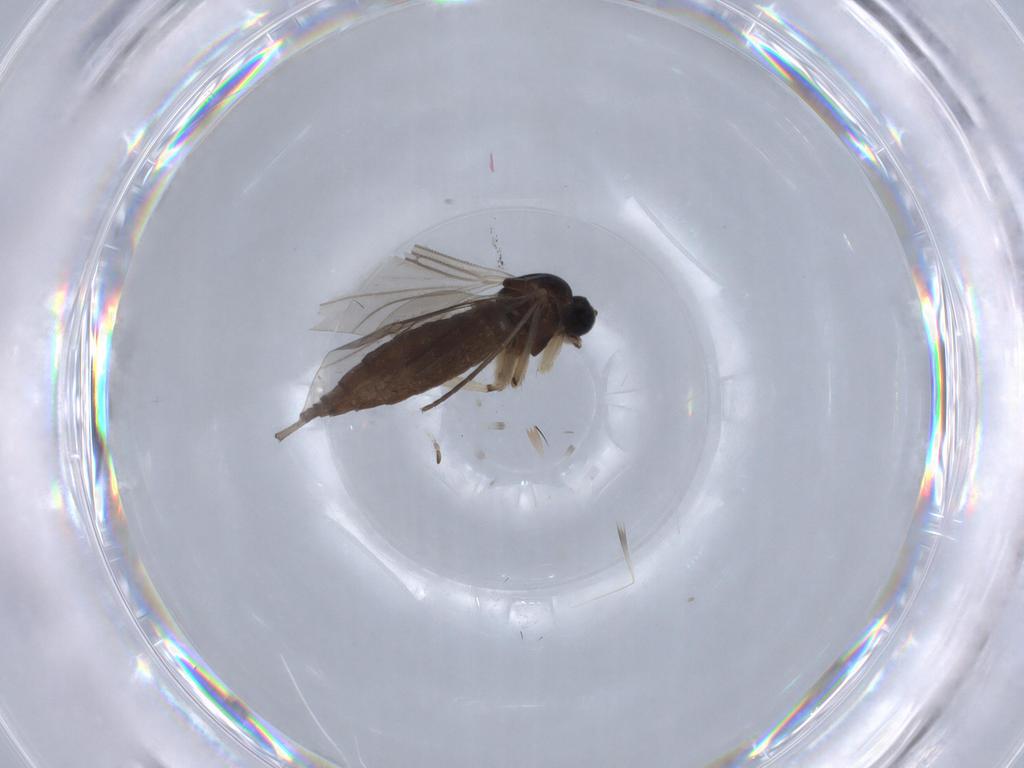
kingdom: Animalia
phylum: Arthropoda
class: Insecta
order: Diptera
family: Sciaridae
